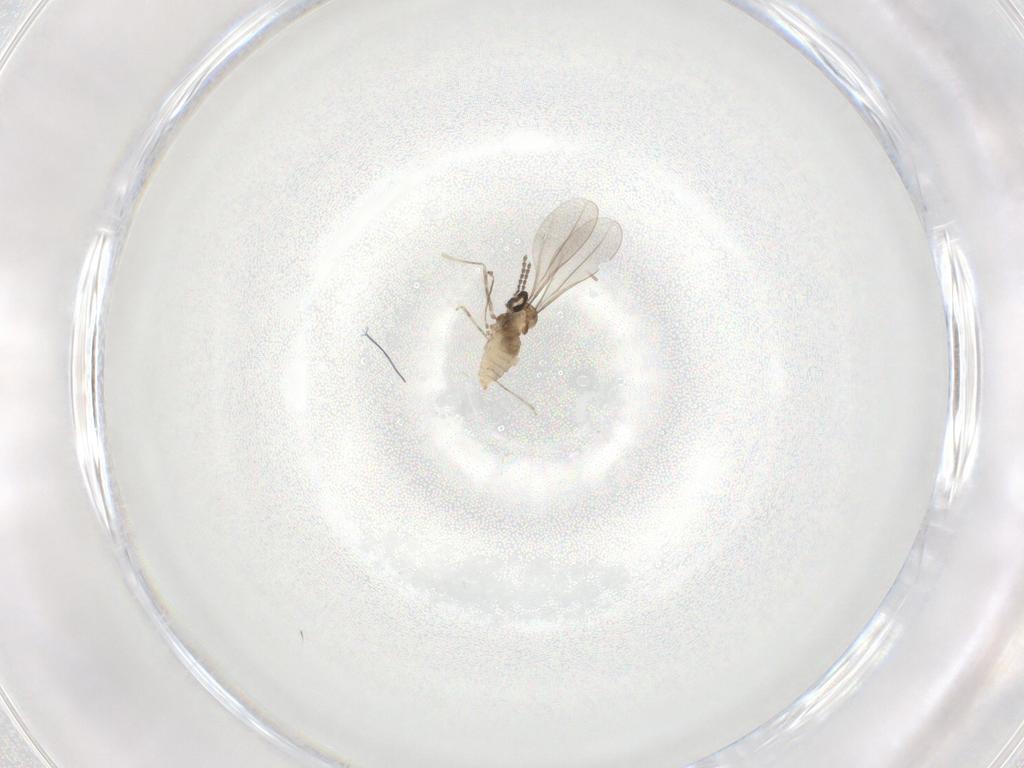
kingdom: Animalia
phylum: Arthropoda
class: Insecta
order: Diptera
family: Cecidomyiidae
